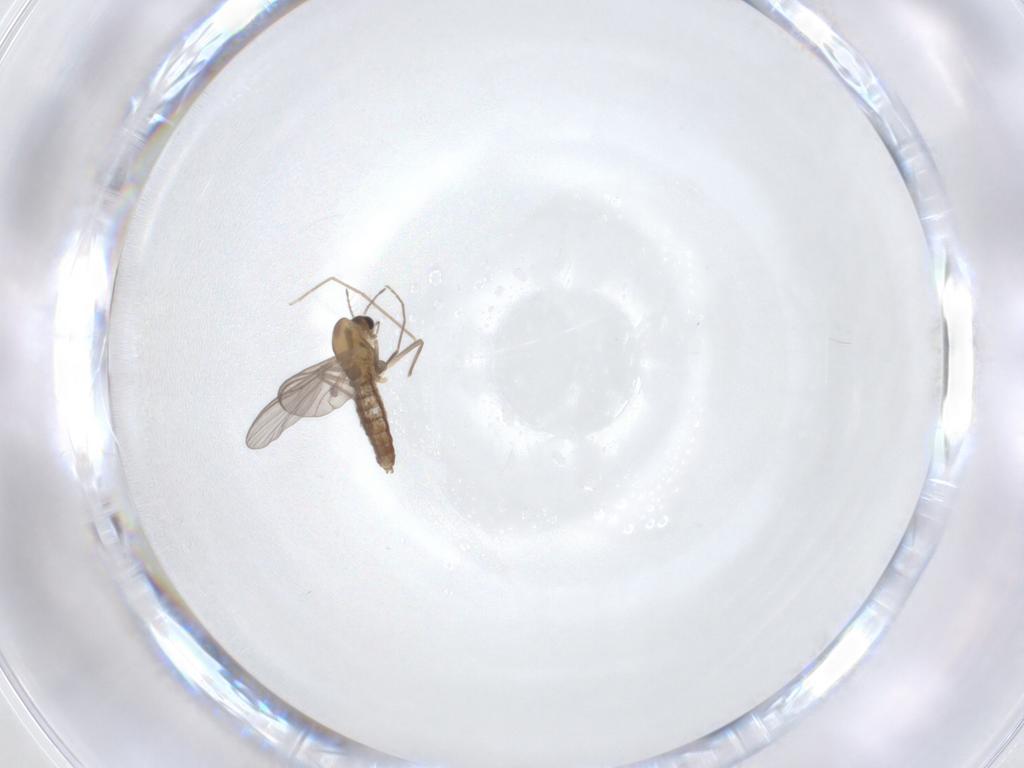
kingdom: Animalia
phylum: Arthropoda
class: Insecta
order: Diptera
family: Chironomidae
